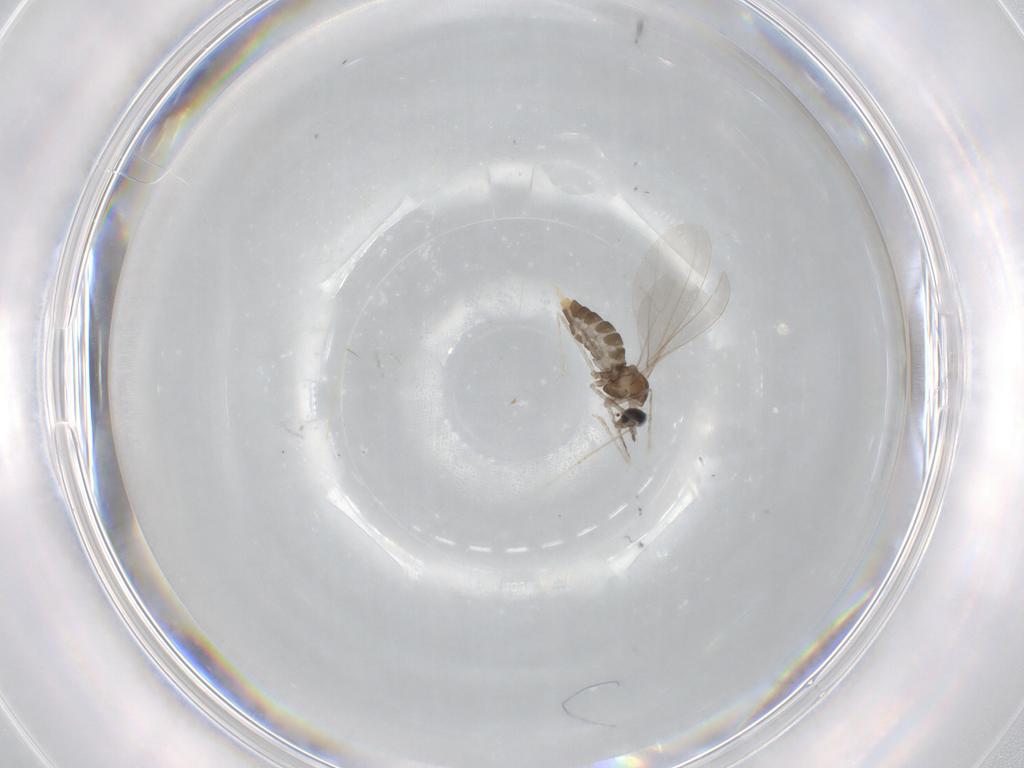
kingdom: Animalia
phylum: Arthropoda
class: Insecta
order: Diptera
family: Cecidomyiidae
